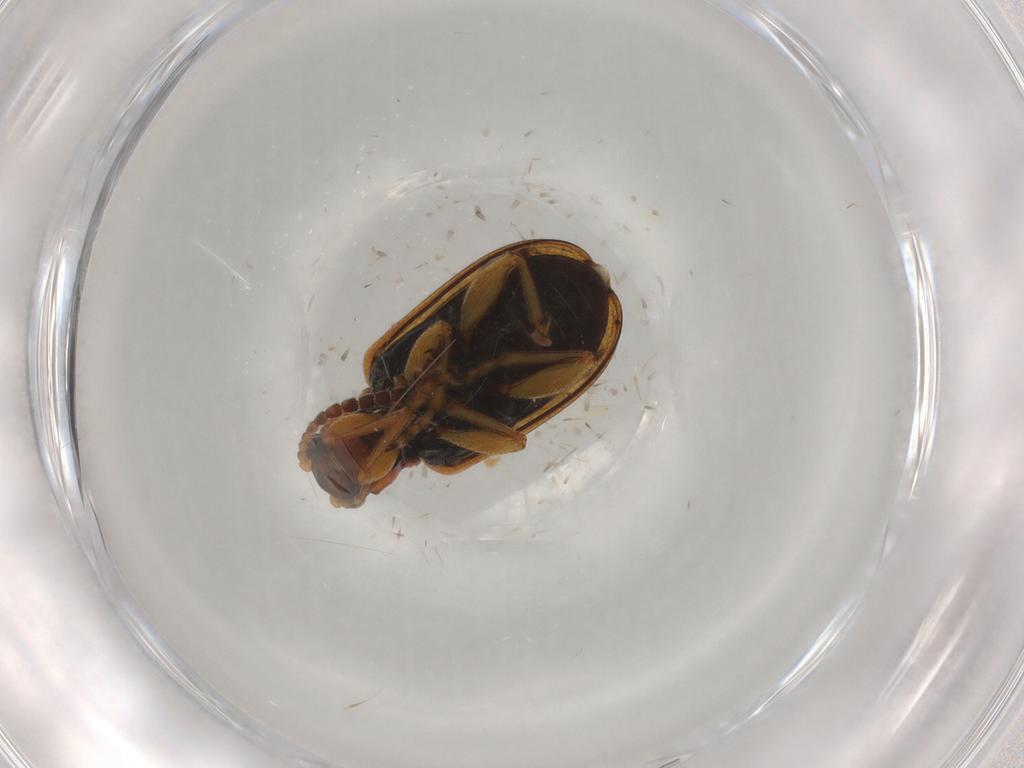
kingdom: Animalia
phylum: Arthropoda
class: Insecta
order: Coleoptera
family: Chrysomelidae
